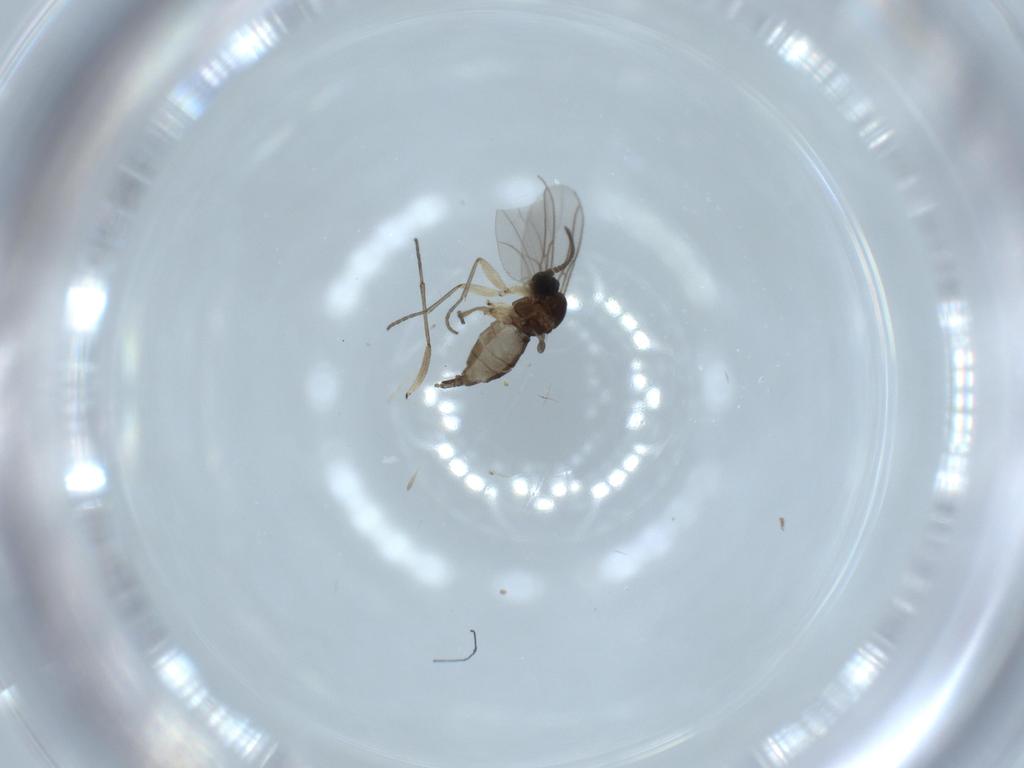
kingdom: Animalia
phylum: Arthropoda
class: Insecta
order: Diptera
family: Sciaridae
